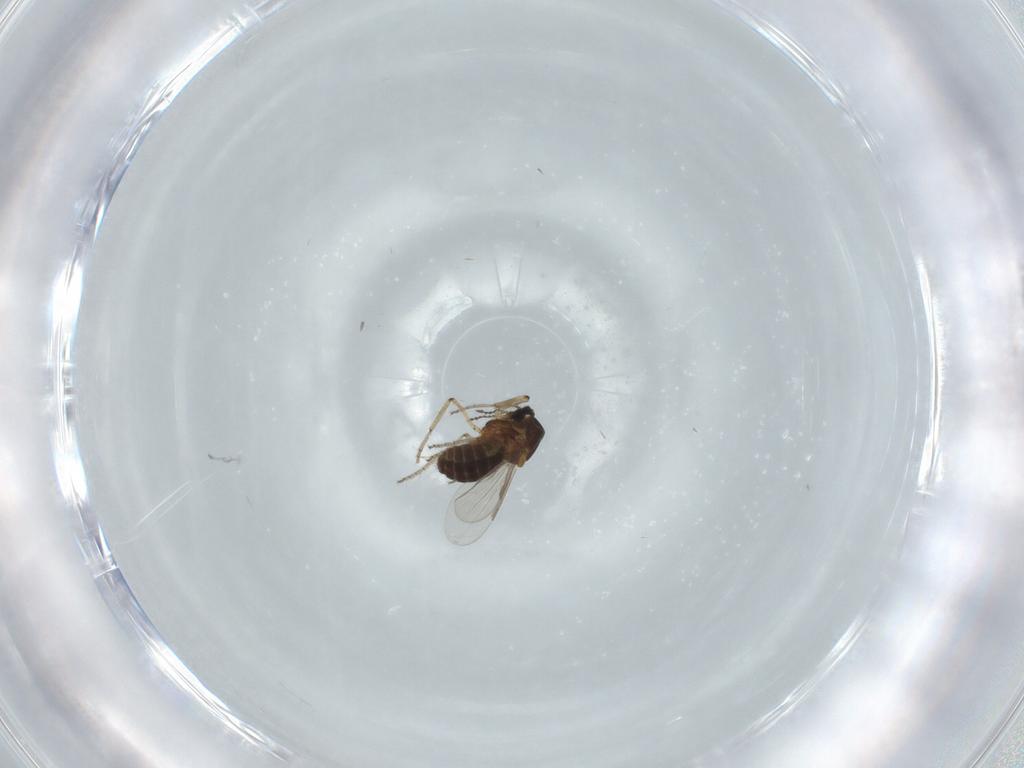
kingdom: Animalia
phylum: Arthropoda
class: Insecta
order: Diptera
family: Ceratopogonidae
